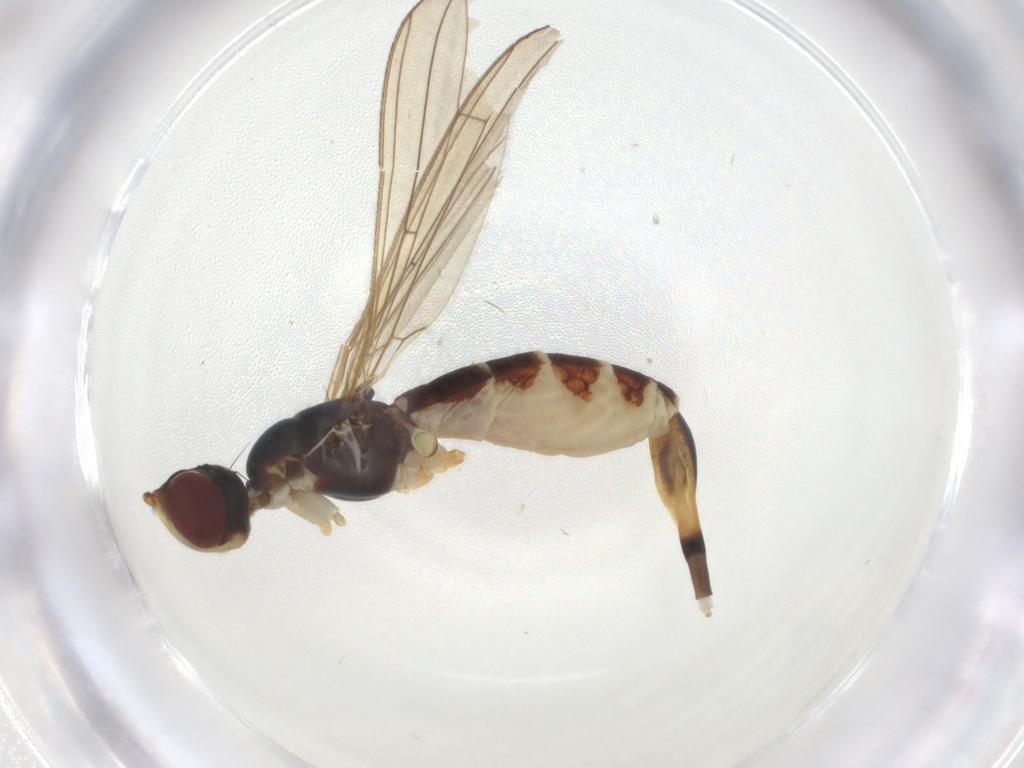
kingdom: Animalia
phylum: Arthropoda
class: Insecta
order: Diptera
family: Micropezidae
